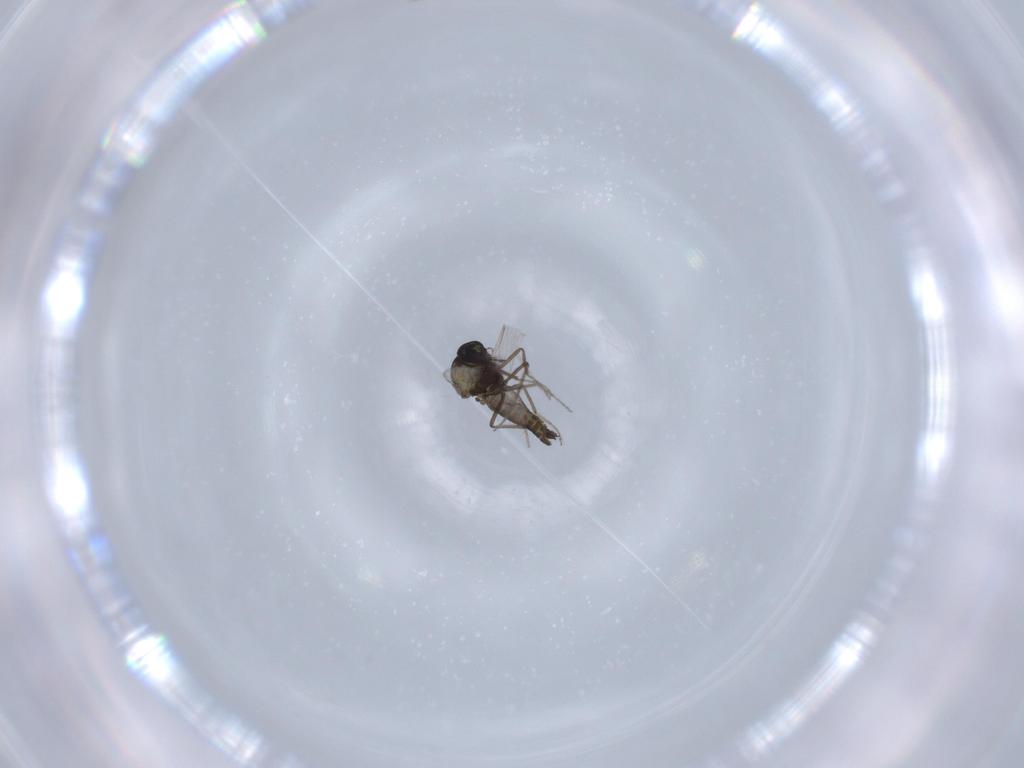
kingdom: Animalia
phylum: Arthropoda
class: Insecta
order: Diptera
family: Ceratopogonidae
